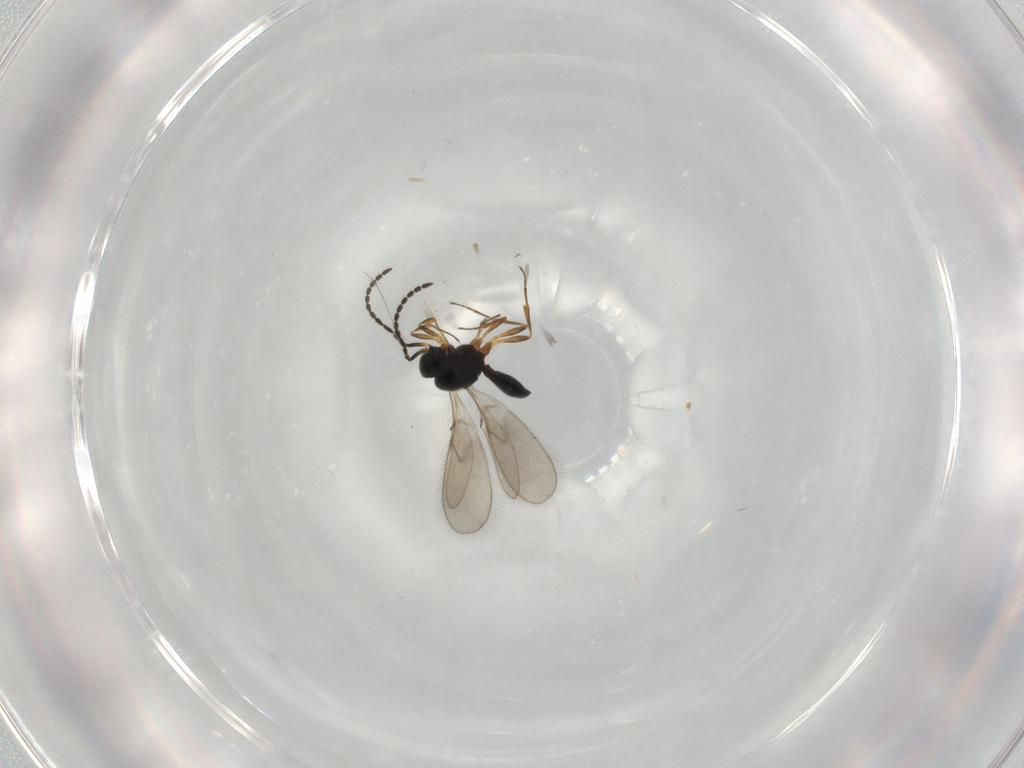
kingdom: Animalia
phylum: Arthropoda
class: Insecta
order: Hymenoptera
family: Scelionidae
